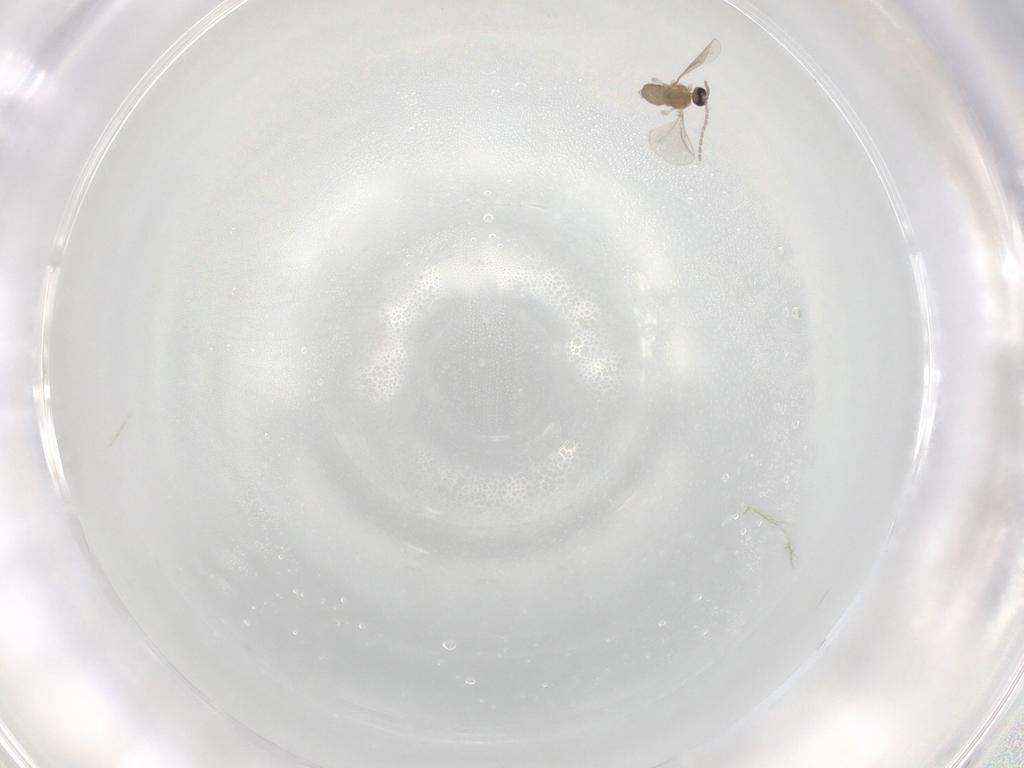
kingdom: Animalia
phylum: Arthropoda
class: Insecta
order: Diptera
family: Cecidomyiidae
